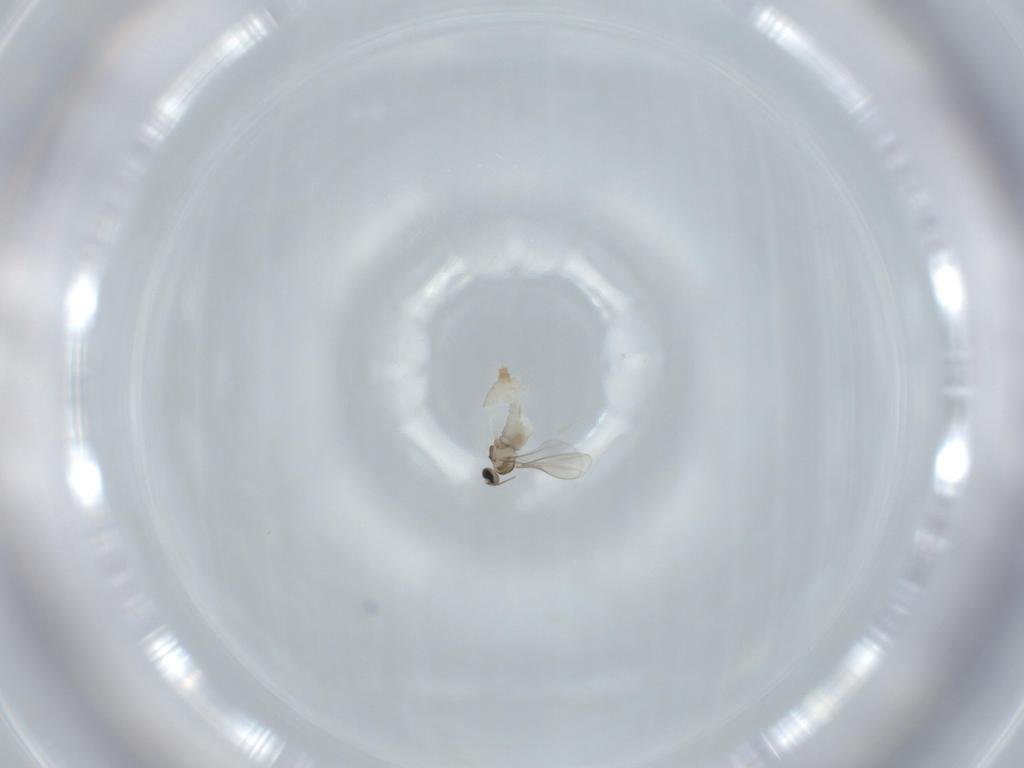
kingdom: Animalia
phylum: Arthropoda
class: Insecta
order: Diptera
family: Cecidomyiidae
